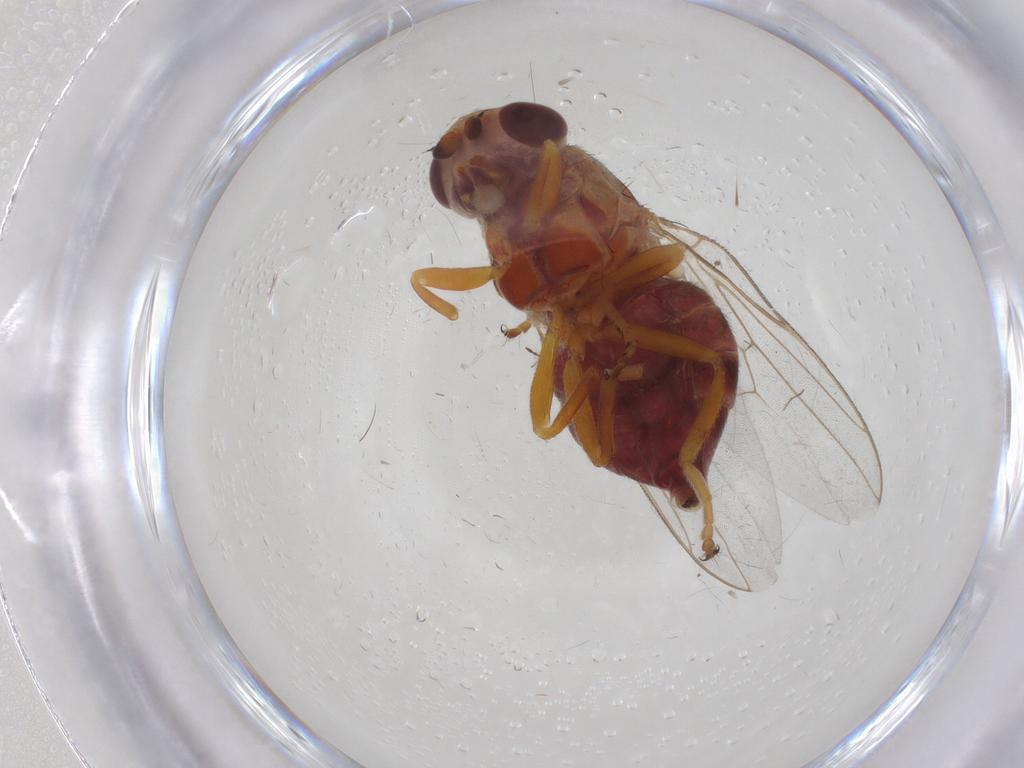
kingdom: Animalia
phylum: Arthropoda
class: Insecta
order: Diptera
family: Chloropidae
